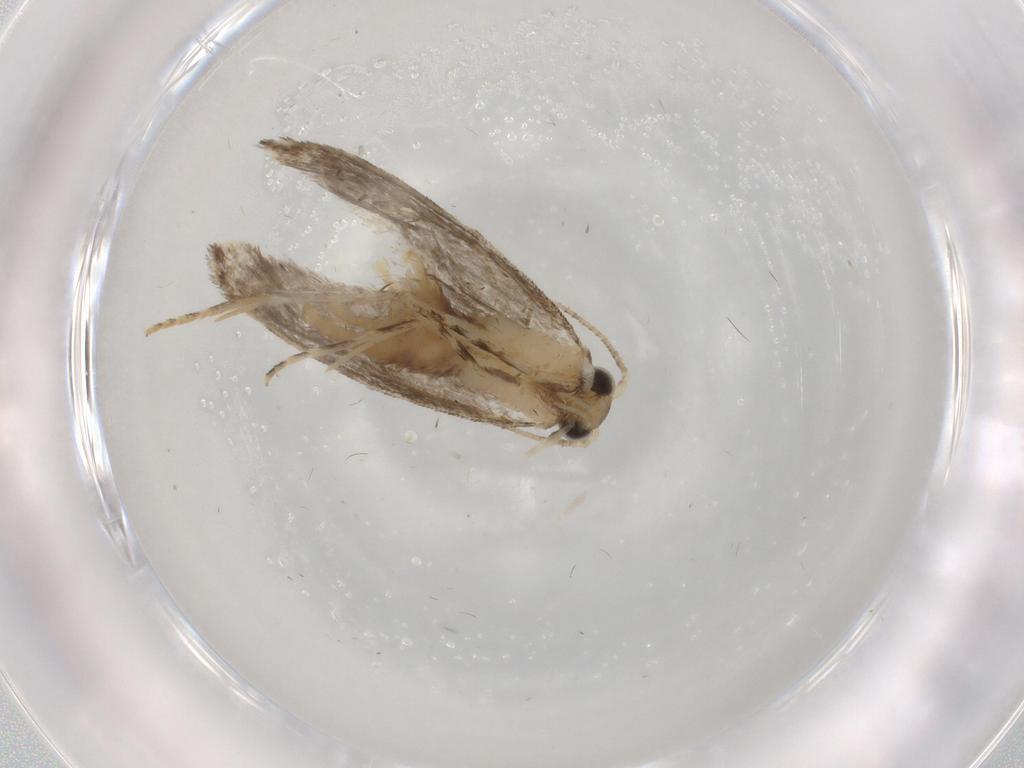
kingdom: Animalia
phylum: Arthropoda
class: Insecta
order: Lepidoptera
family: Tineidae
